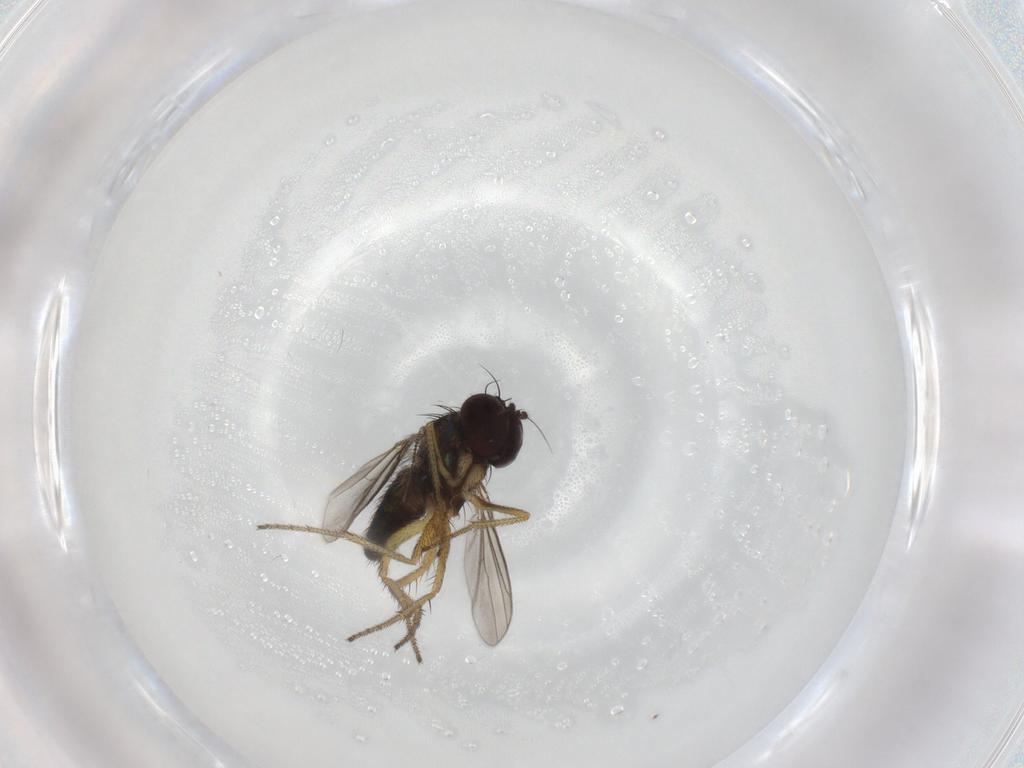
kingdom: Animalia
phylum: Arthropoda
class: Insecta
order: Diptera
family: Dolichopodidae
